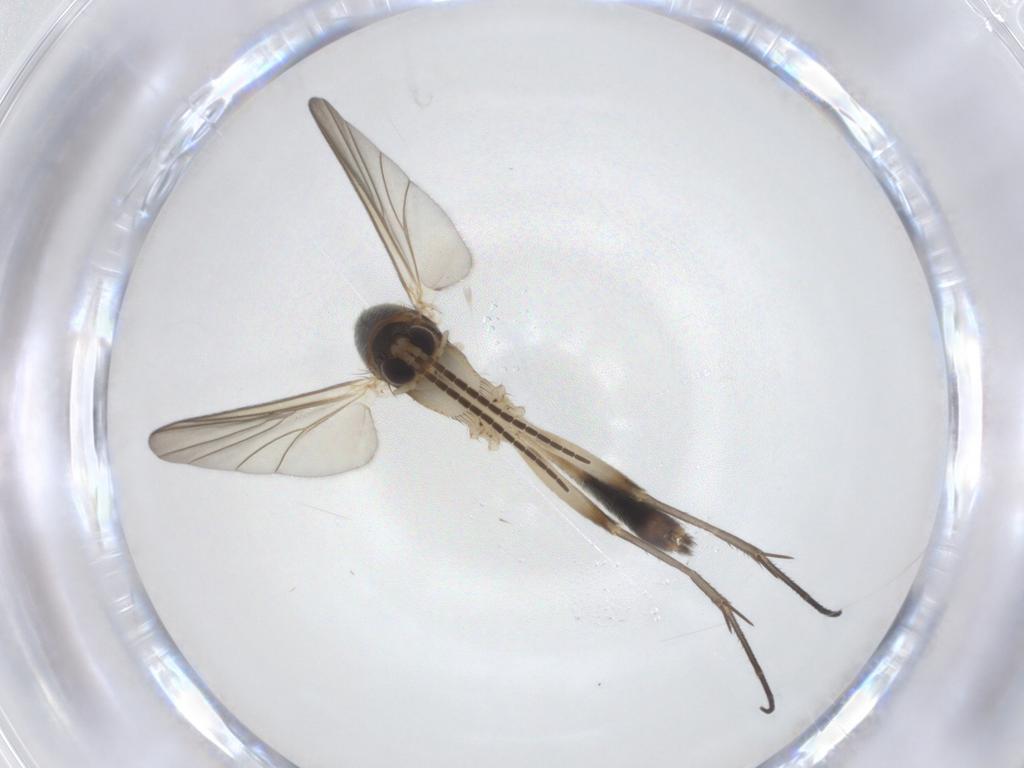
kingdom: Animalia
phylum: Arthropoda
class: Insecta
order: Diptera
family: Mycetophilidae
